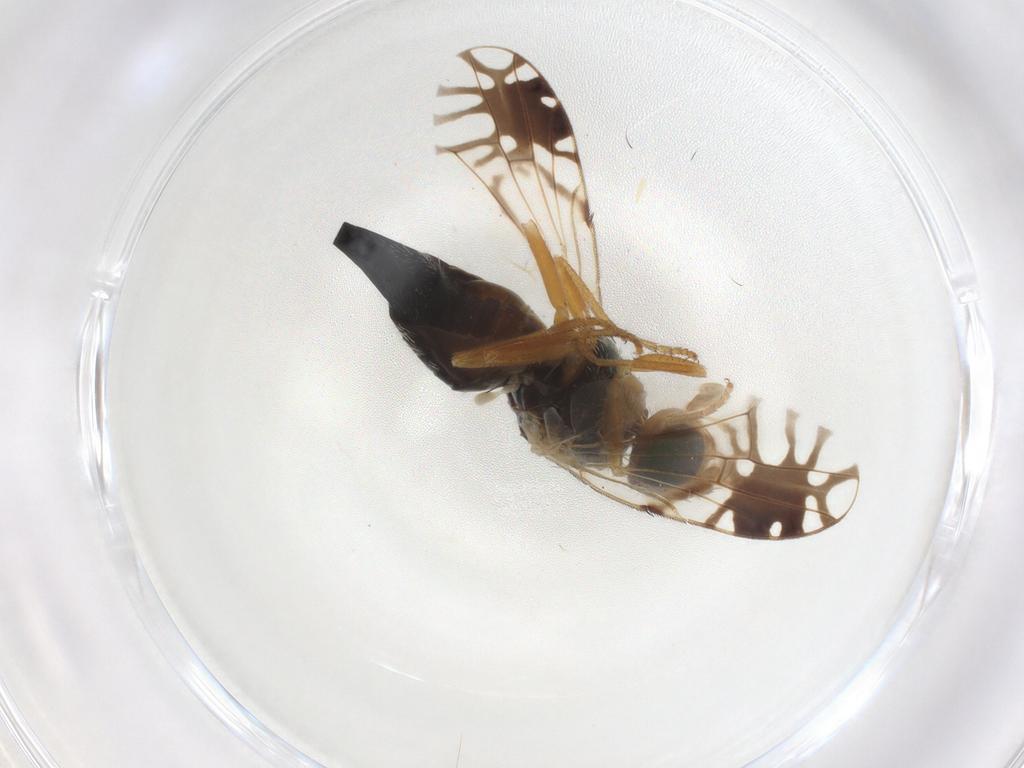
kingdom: Animalia
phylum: Arthropoda
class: Insecta
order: Diptera
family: Tephritidae
